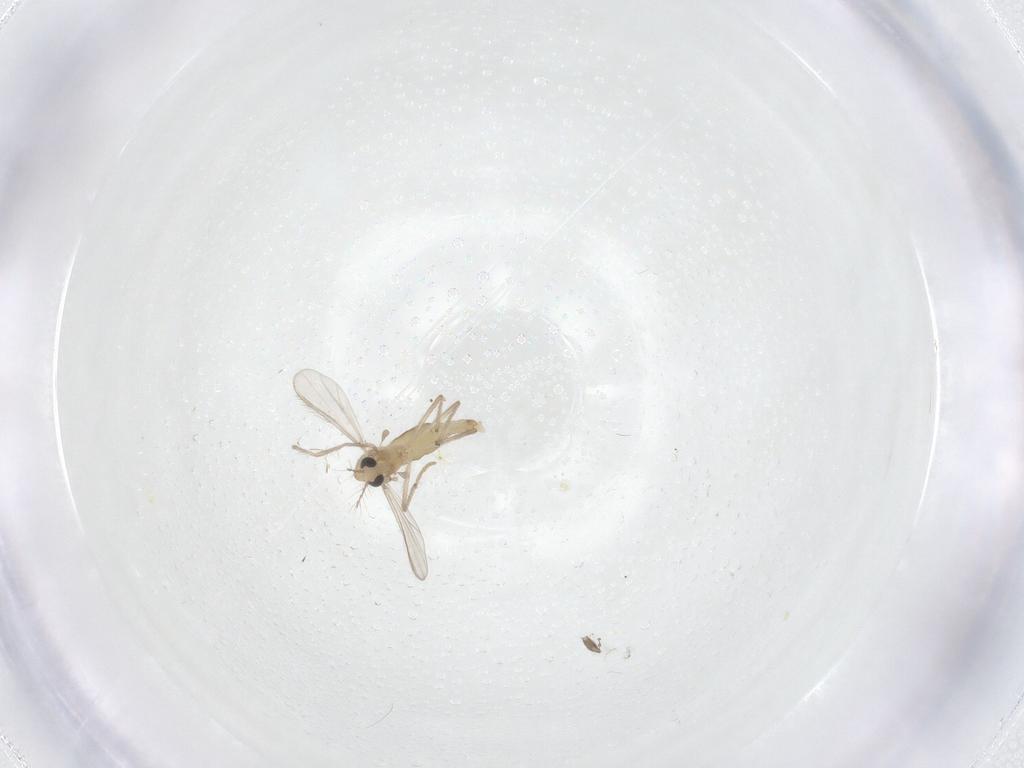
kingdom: Animalia
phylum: Arthropoda
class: Insecta
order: Diptera
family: Chironomidae
